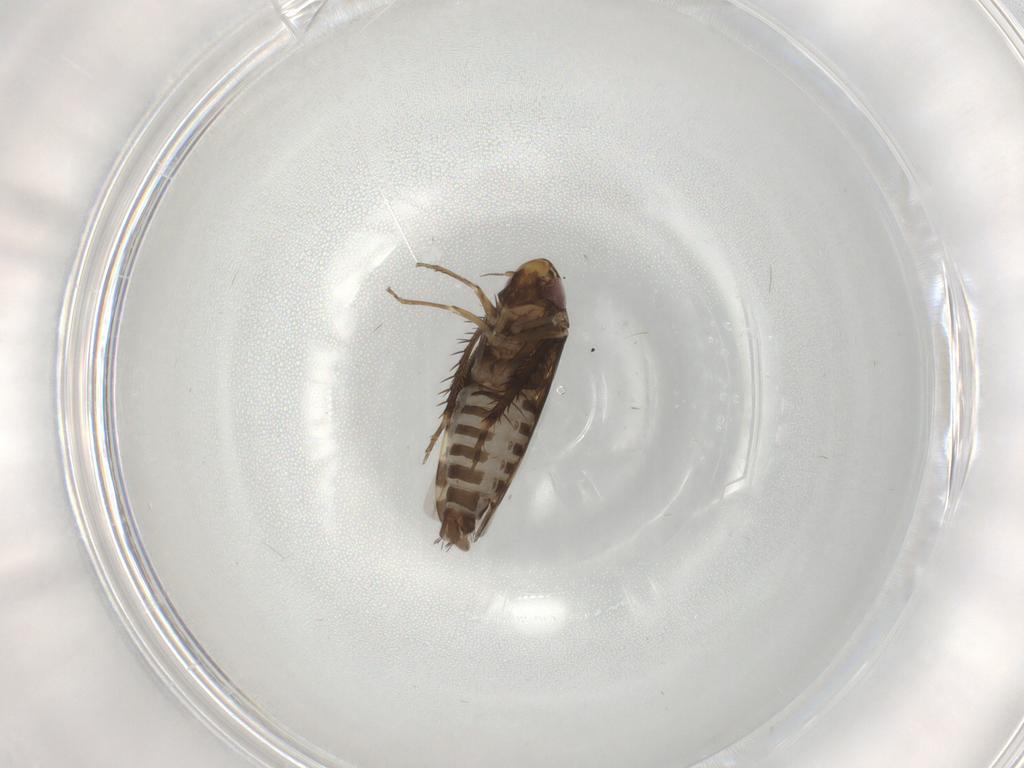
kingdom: Animalia
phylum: Arthropoda
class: Insecta
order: Hemiptera
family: Cicadellidae
